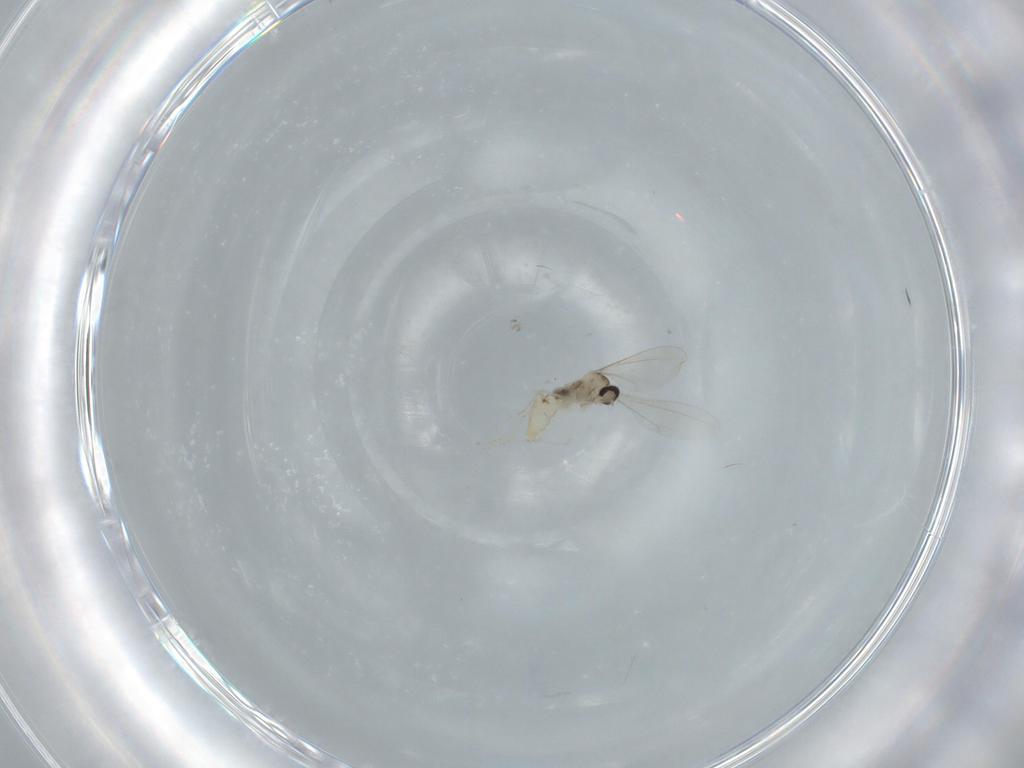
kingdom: Animalia
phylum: Arthropoda
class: Insecta
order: Diptera
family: Cecidomyiidae
